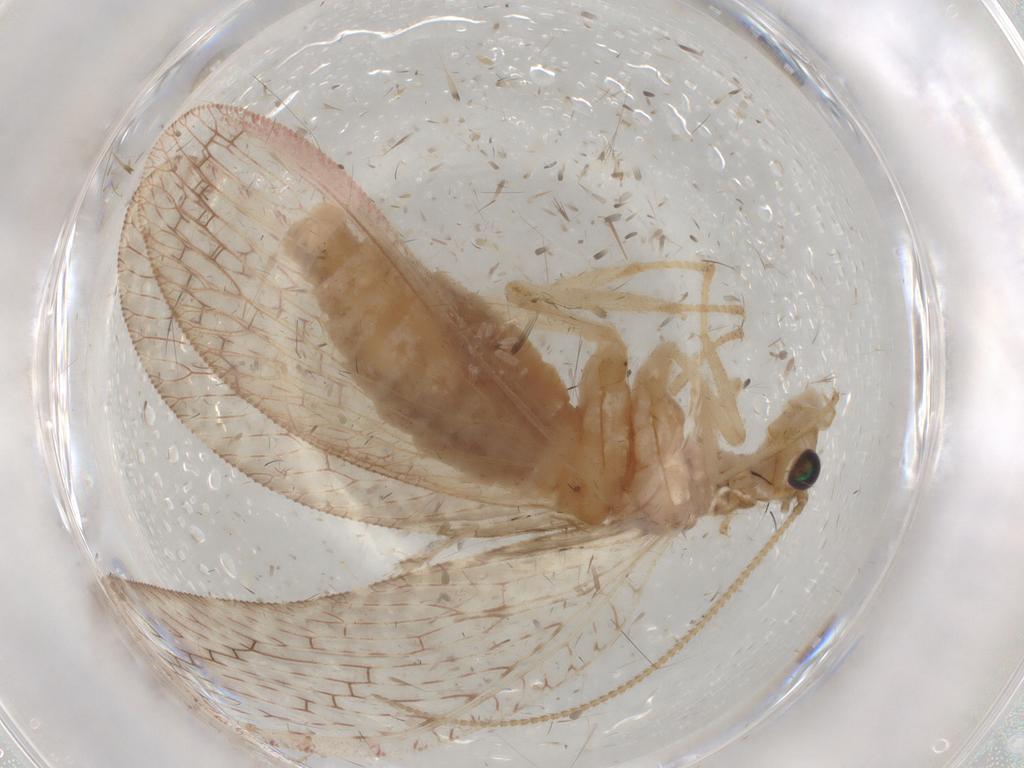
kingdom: Animalia
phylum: Arthropoda
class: Insecta
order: Neuroptera
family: Hemerobiidae
